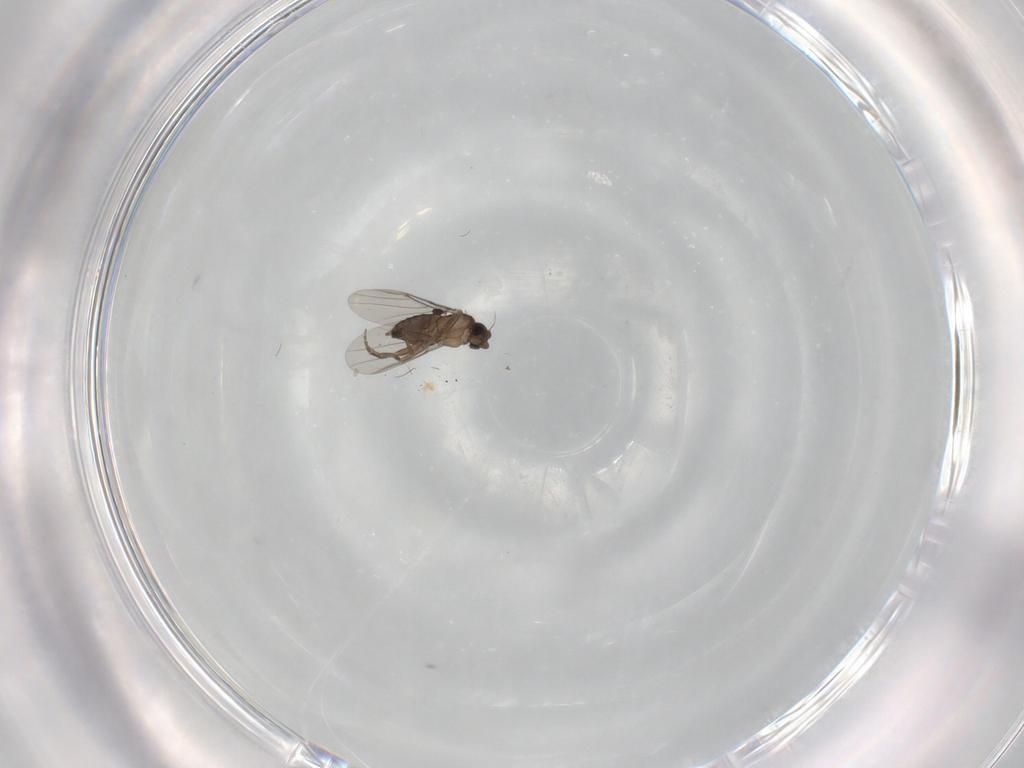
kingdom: Animalia
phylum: Arthropoda
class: Insecta
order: Diptera
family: Phoridae
